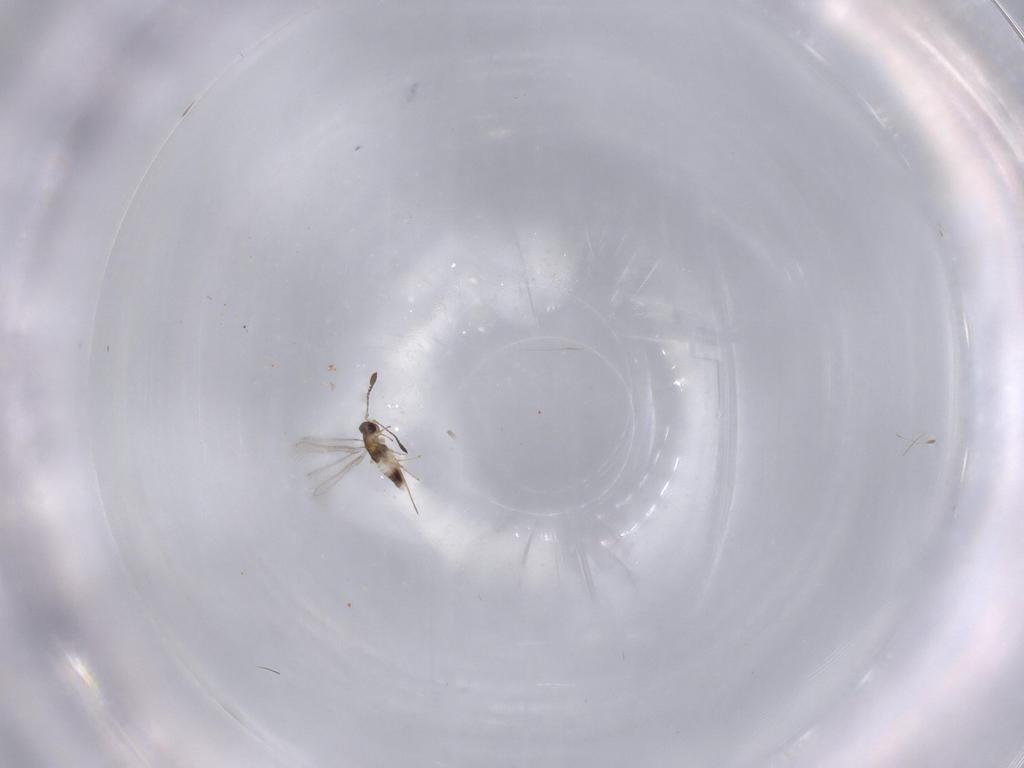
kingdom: Animalia
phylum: Arthropoda
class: Insecta
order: Hymenoptera
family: Mymaridae
